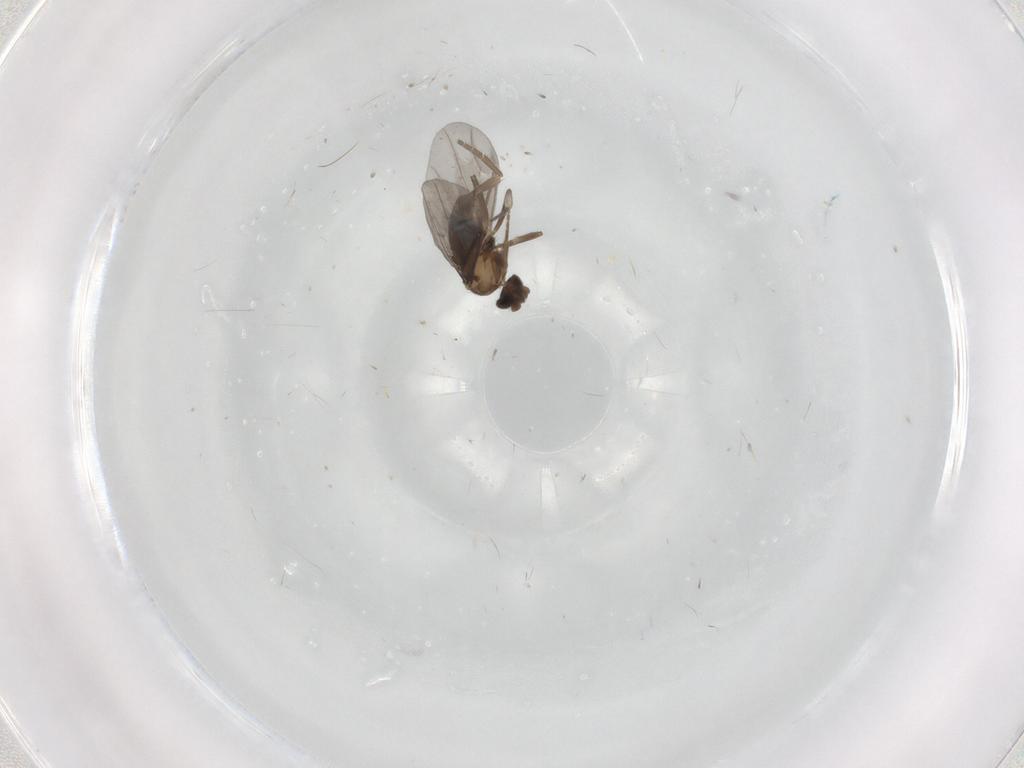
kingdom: Animalia
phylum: Arthropoda
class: Insecta
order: Diptera
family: Phoridae
